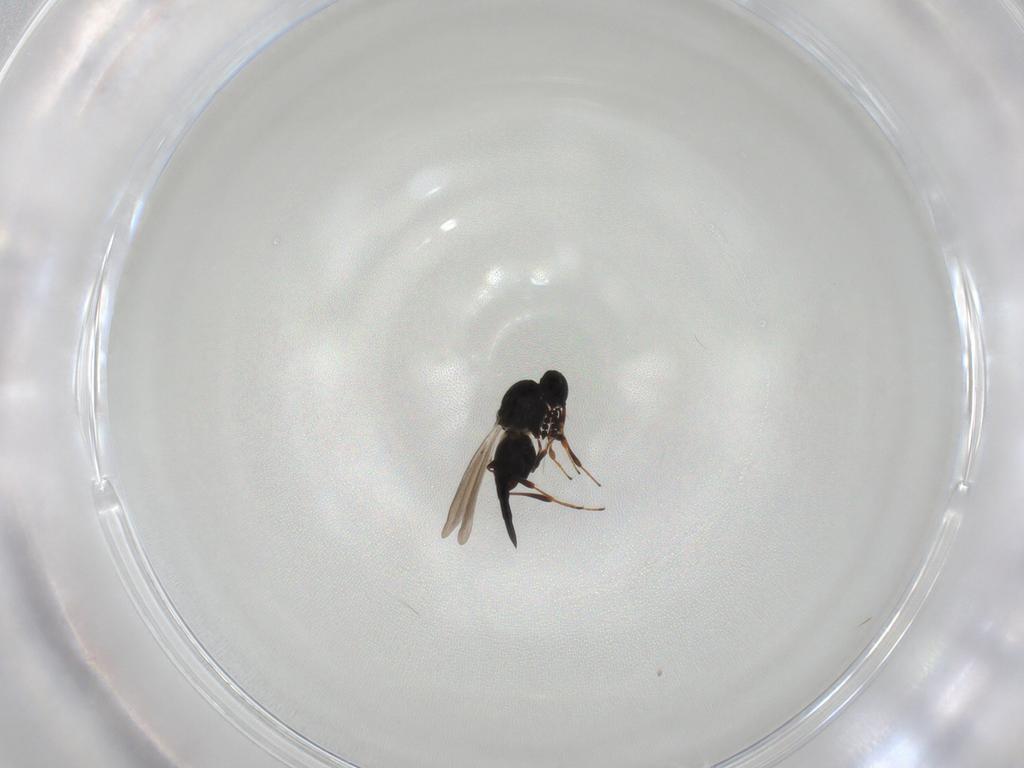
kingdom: Animalia
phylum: Arthropoda
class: Insecta
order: Hymenoptera
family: Platygastridae
